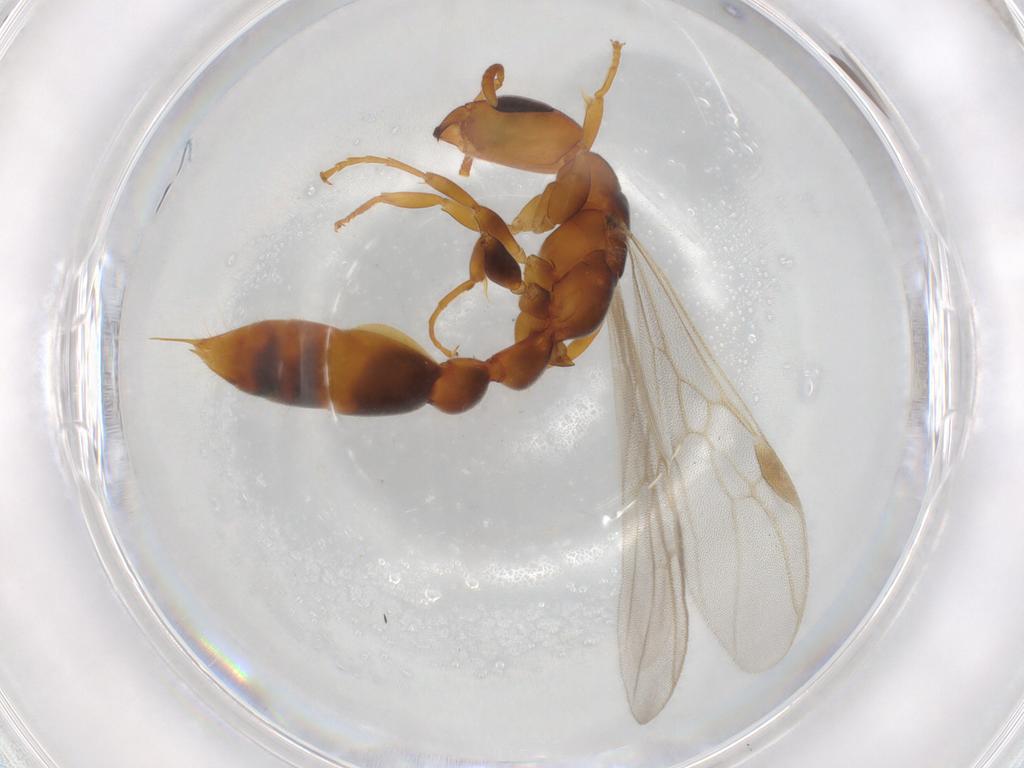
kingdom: Animalia
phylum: Arthropoda
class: Insecta
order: Hymenoptera
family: Formicidae
